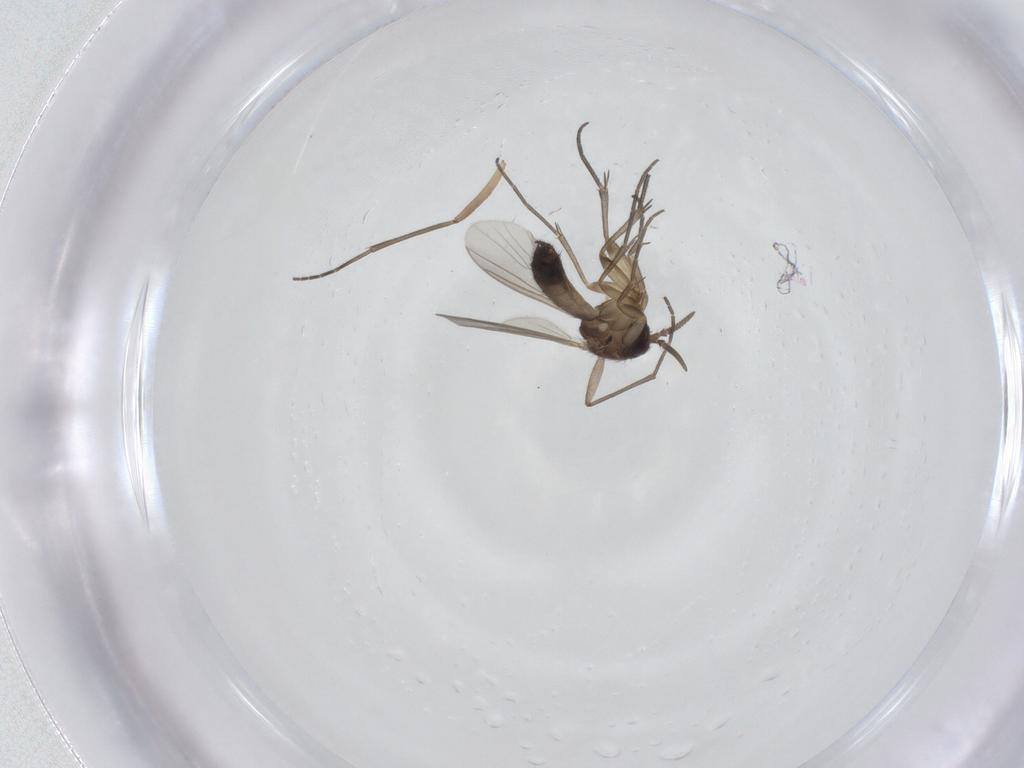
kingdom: Animalia
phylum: Arthropoda
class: Insecta
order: Diptera
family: Mycetophilidae
